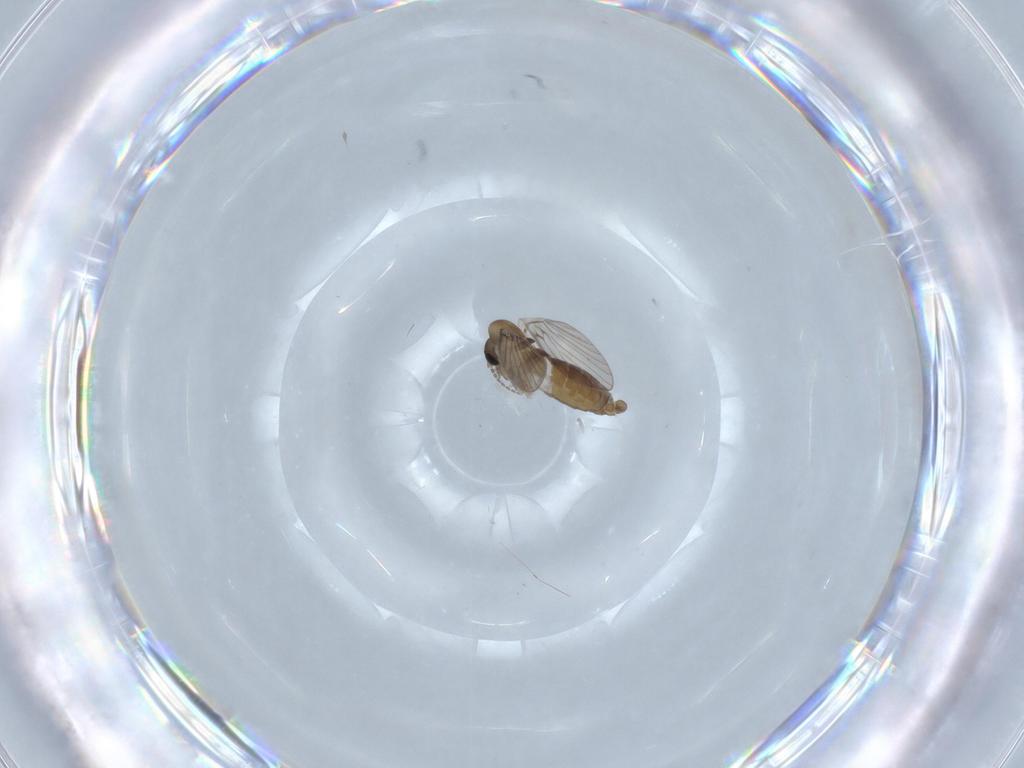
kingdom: Animalia
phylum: Arthropoda
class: Insecta
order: Diptera
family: Psychodidae
